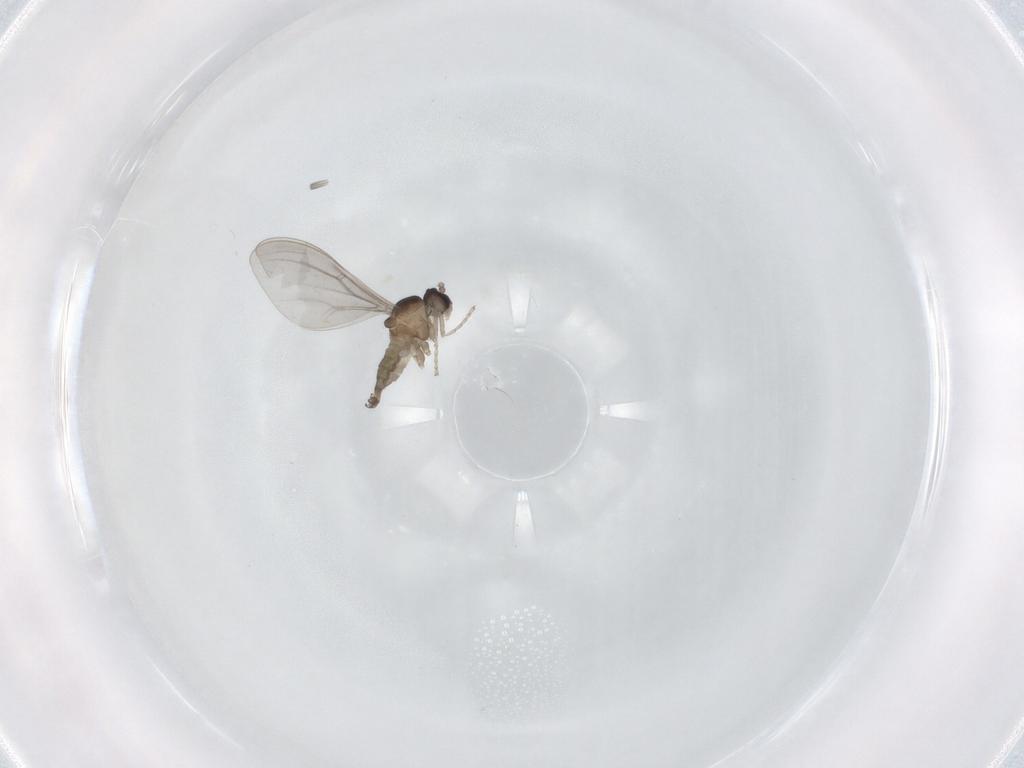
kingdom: Animalia
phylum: Arthropoda
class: Insecta
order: Diptera
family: Cecidomyiidae
